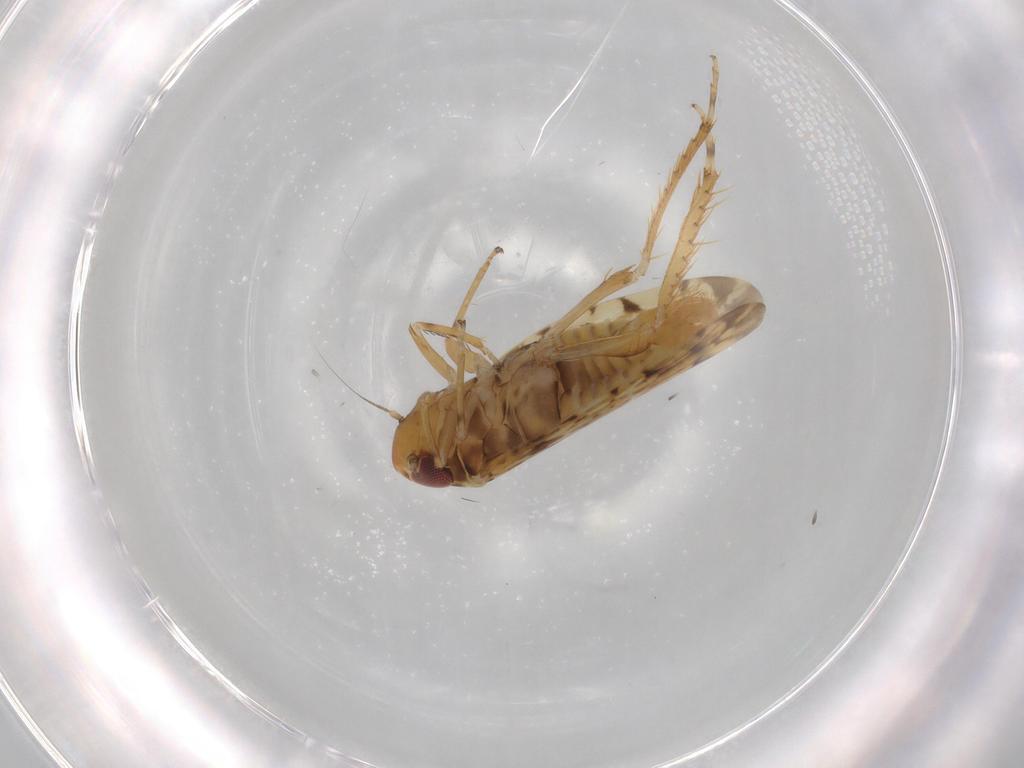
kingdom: Animalia
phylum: Arthropoda
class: Insecta
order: Hemiptera
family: Cicadellidae
